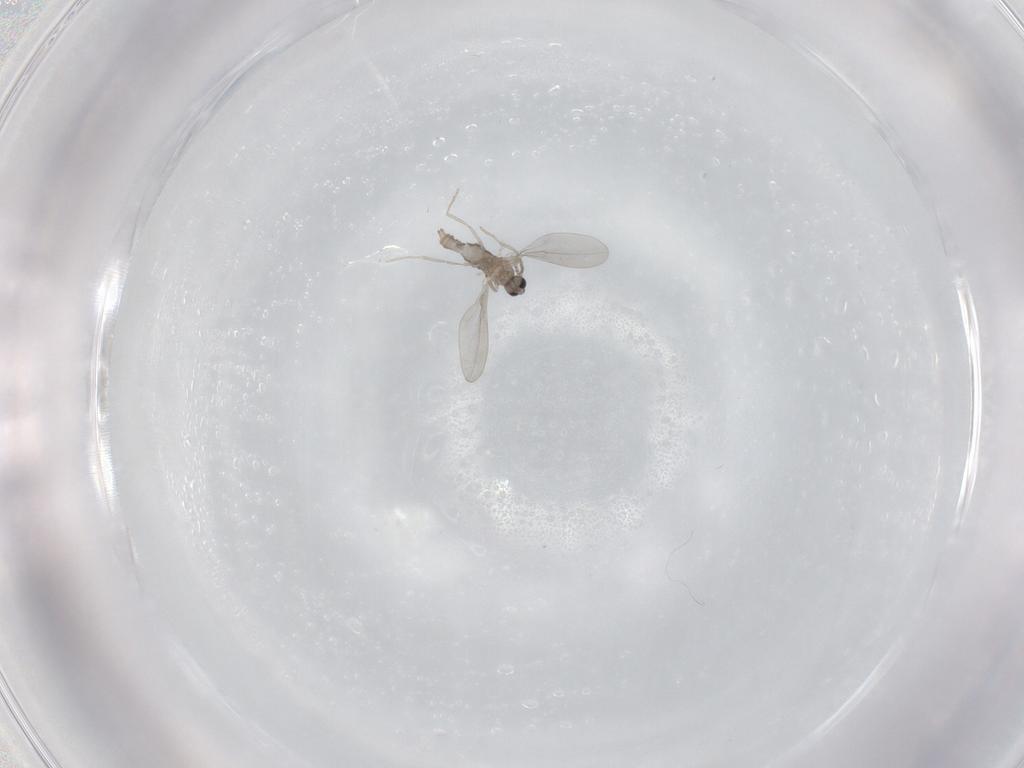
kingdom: Animalia
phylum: Arthropoda
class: Insecta
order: Diptera
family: Cecidomyiidae
